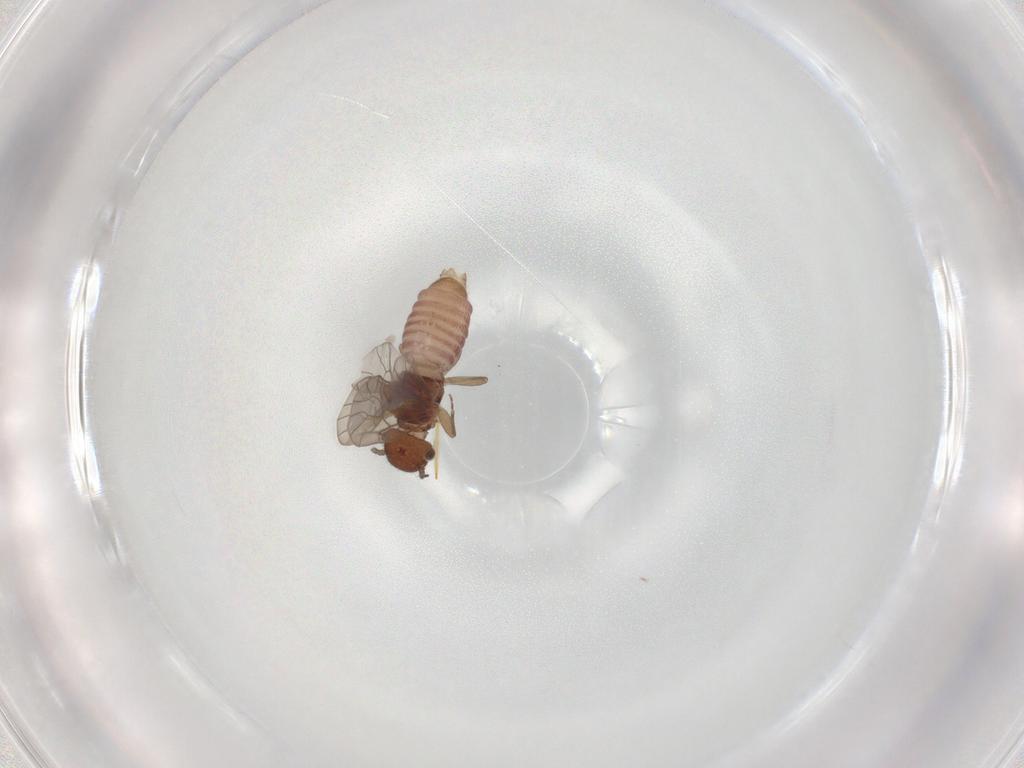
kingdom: Animalia
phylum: Arthropoda
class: Insecta
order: Psocodea
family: Ectopsocidae
